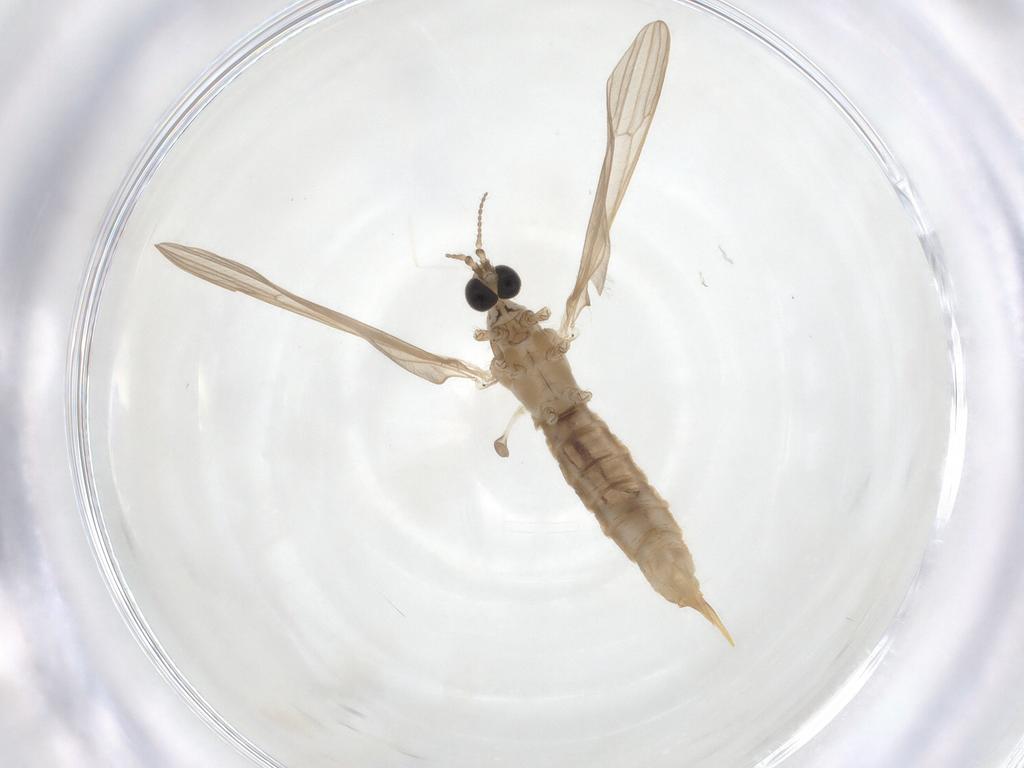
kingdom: Animalia
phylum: Arthropoda
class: Insecta
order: Diptera
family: Limoniidae
